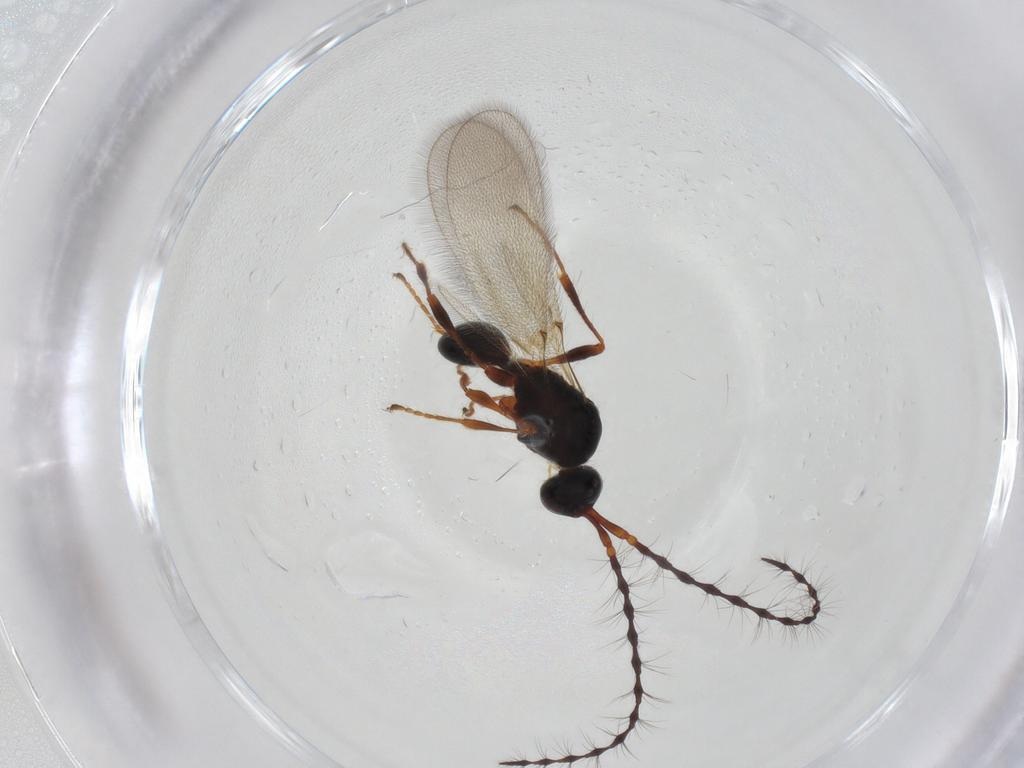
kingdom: Animalia
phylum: Arthropoda
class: Insecta
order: Hymenoptera
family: Diapriidae
